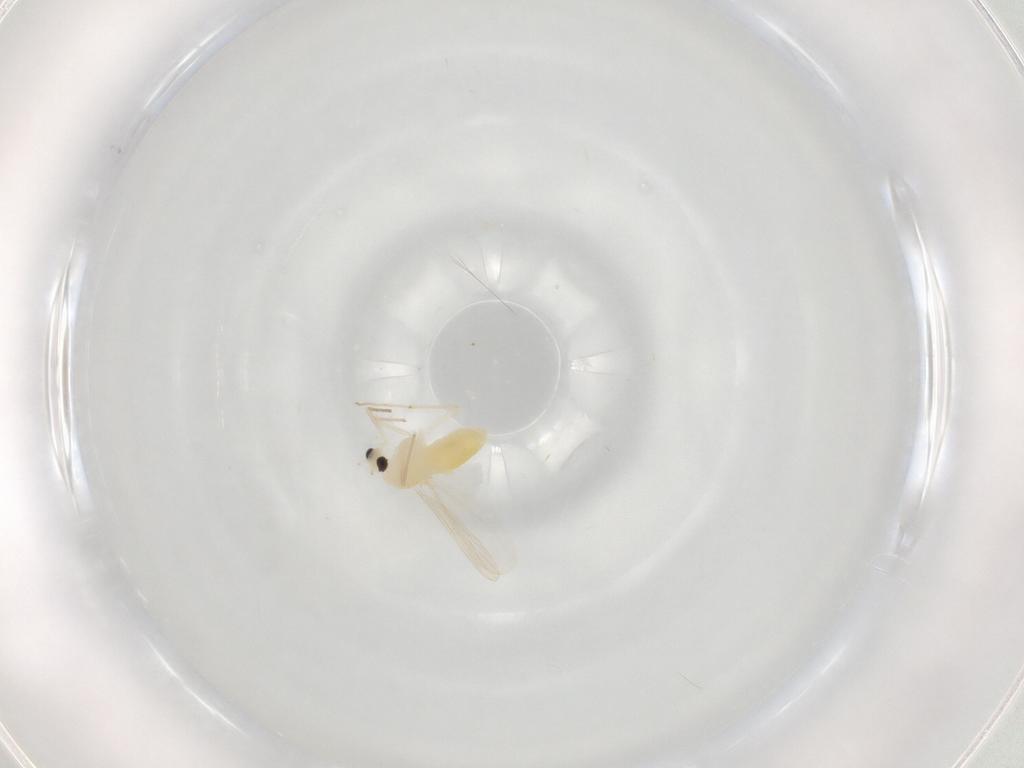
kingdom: Animalia
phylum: Arthropoda
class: Insecta
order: Diptera
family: Chironomidae
